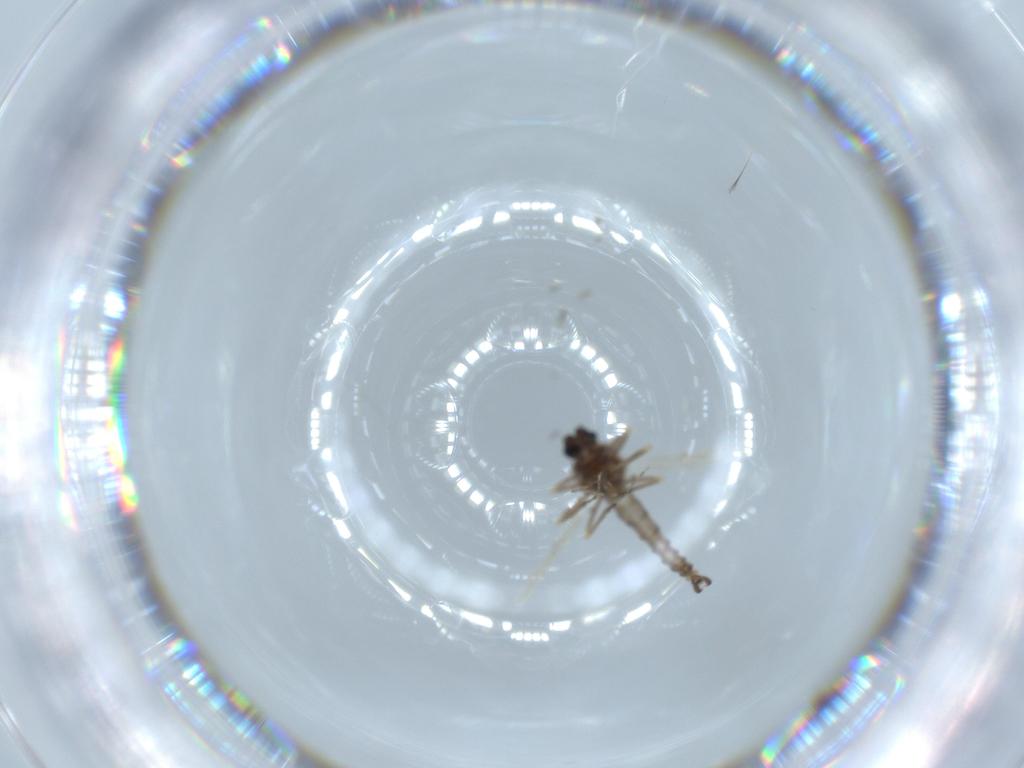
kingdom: Animalia
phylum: Arthropoda
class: Insecta
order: Diptera
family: Ceratopogonidae
